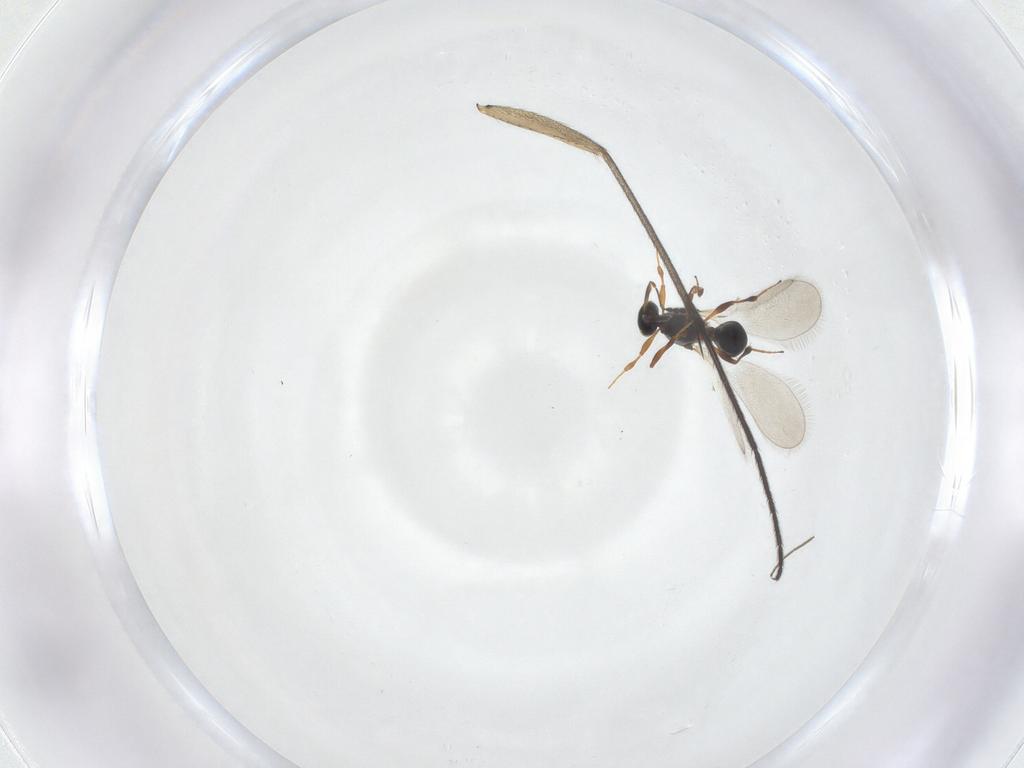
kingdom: Animalia
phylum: Arthropoda
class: Insecta
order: Hymenoptera
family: Platygastridae
